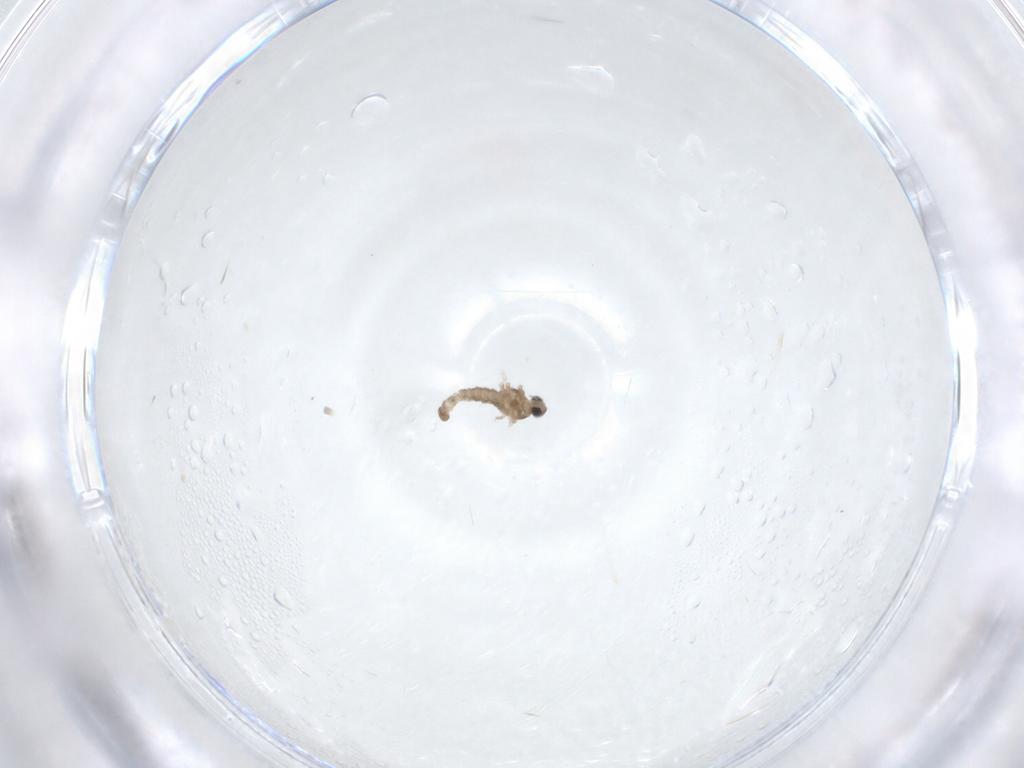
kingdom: Animalia
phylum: Arthropoda
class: Insecta
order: Diptera
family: Cecidomyiidae
